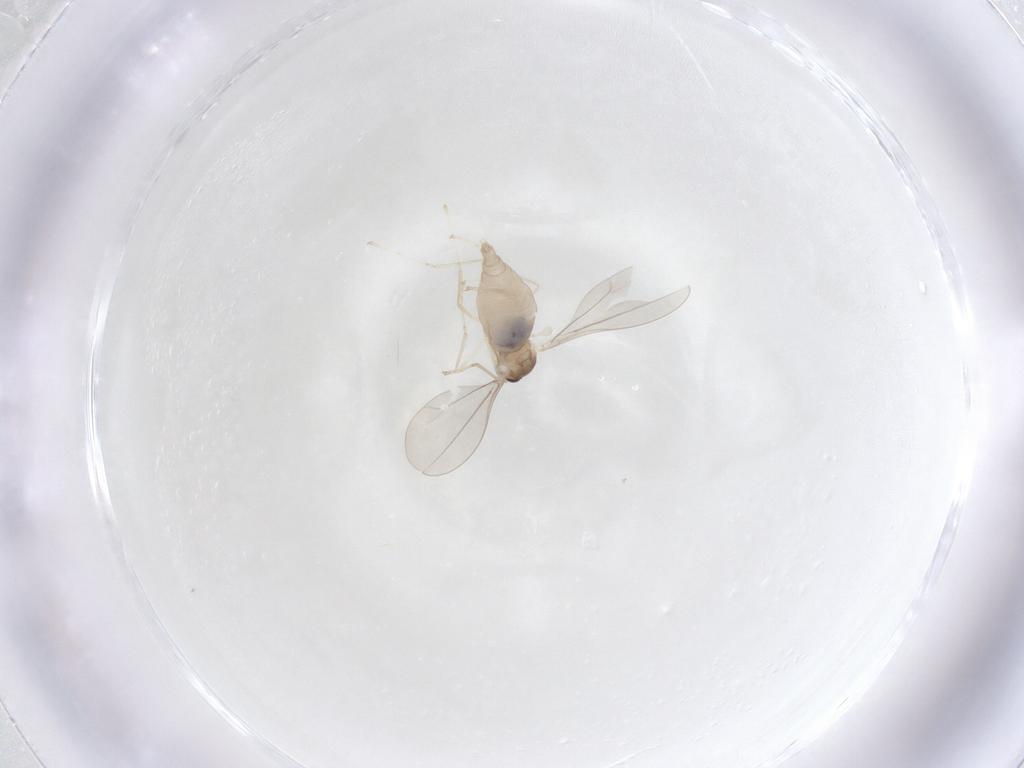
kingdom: Animalia
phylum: Arthropoda
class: Insecta
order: Diptera
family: Cecidomyiidae
